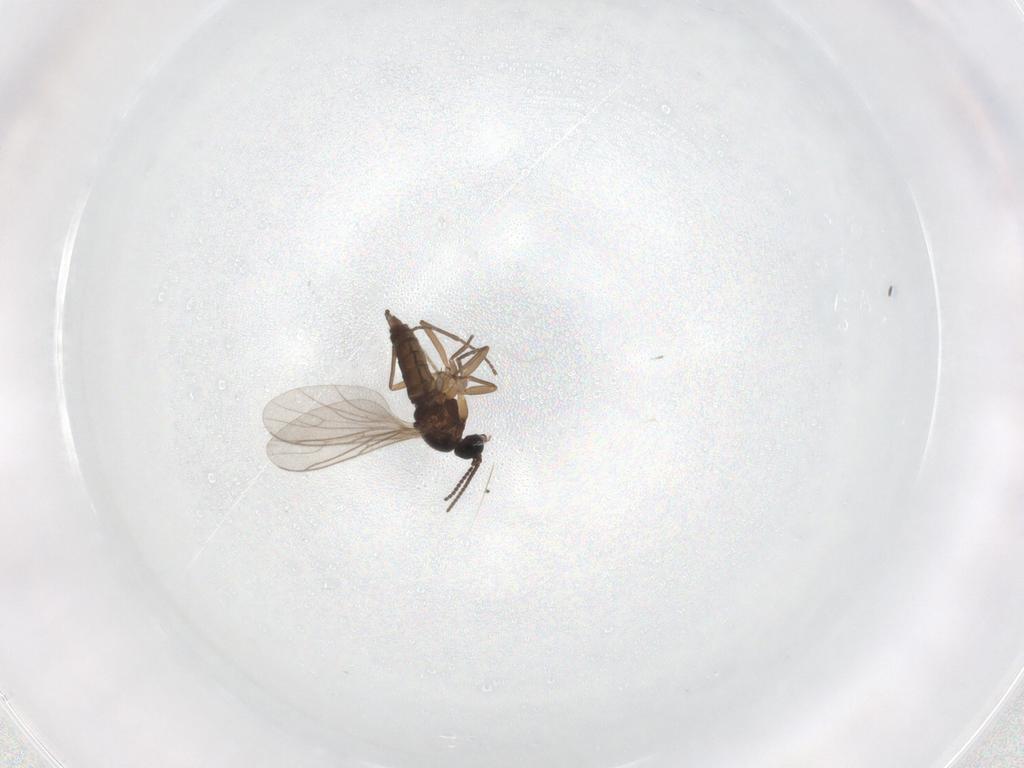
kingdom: Animalia
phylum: Arthropoda
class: Insecta
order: Diptera
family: Sciaridae
